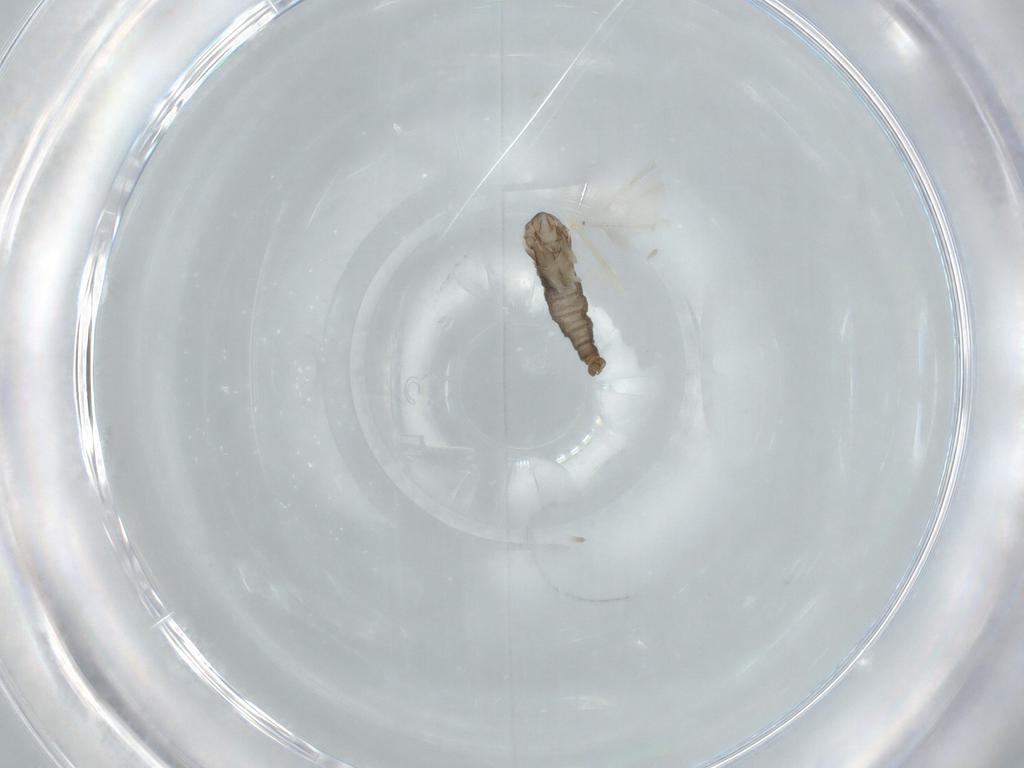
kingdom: Animalia
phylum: Arthropoda
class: Insecta
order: Diptera
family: Cecidomyiidae
